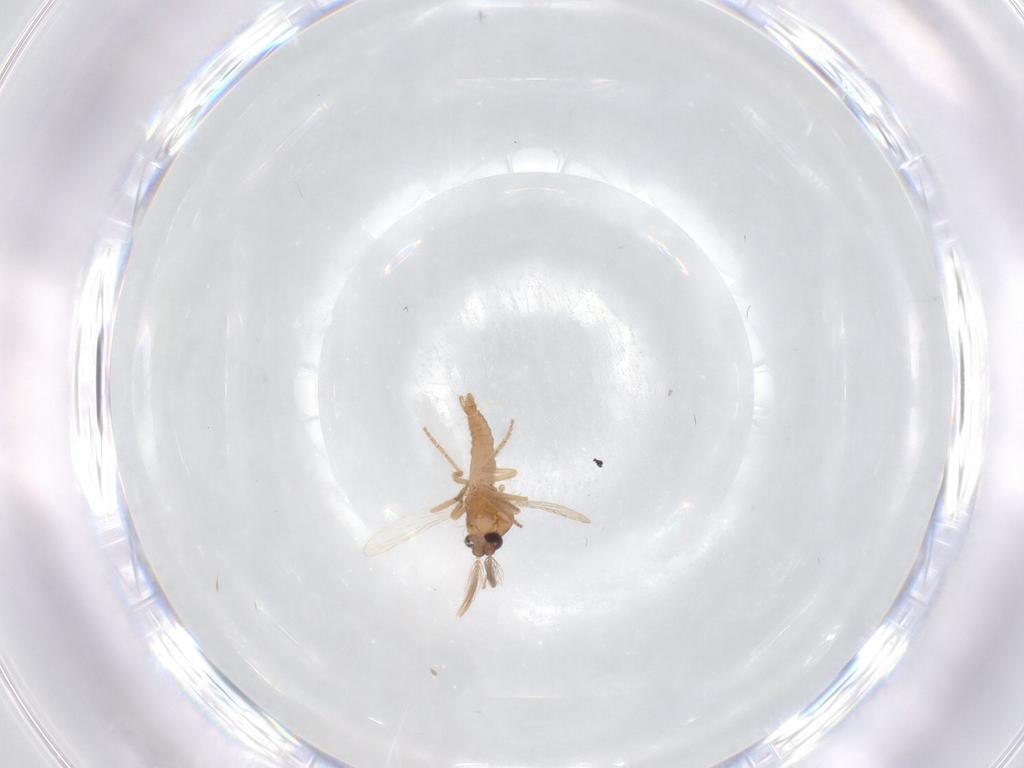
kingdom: Animalia
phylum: Arthropoda
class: Insecta
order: Diptera
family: Ceratopogonidae
